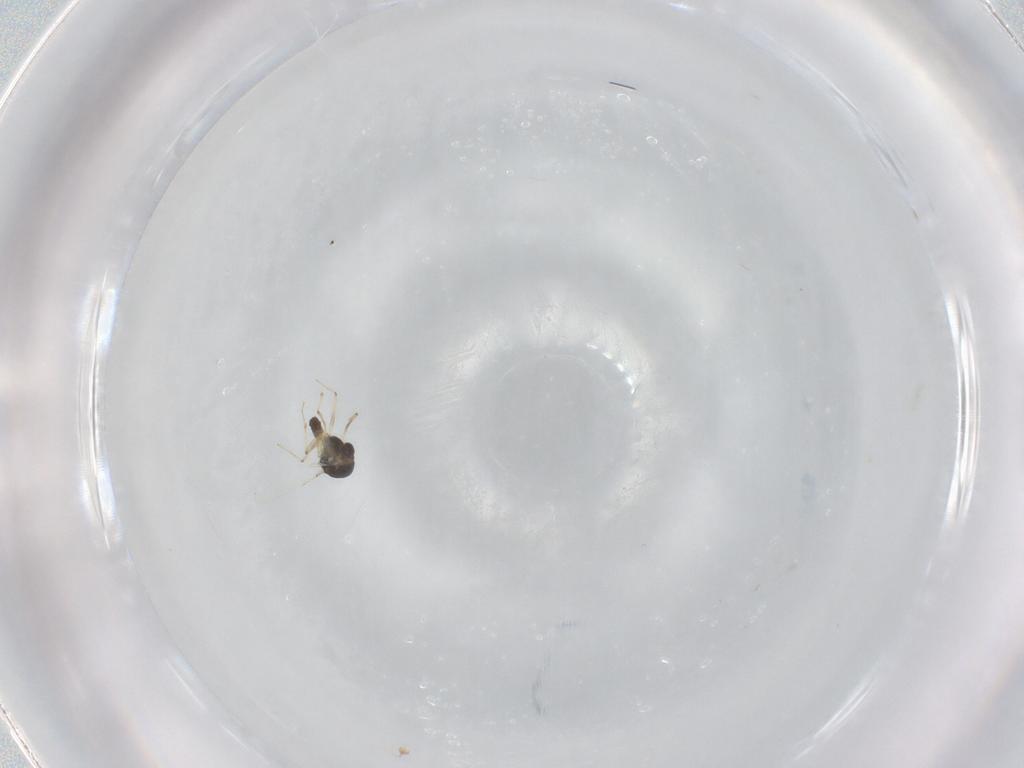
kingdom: Animalia
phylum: Arthropoda
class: Insecta
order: Diptera
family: Chironomidae
